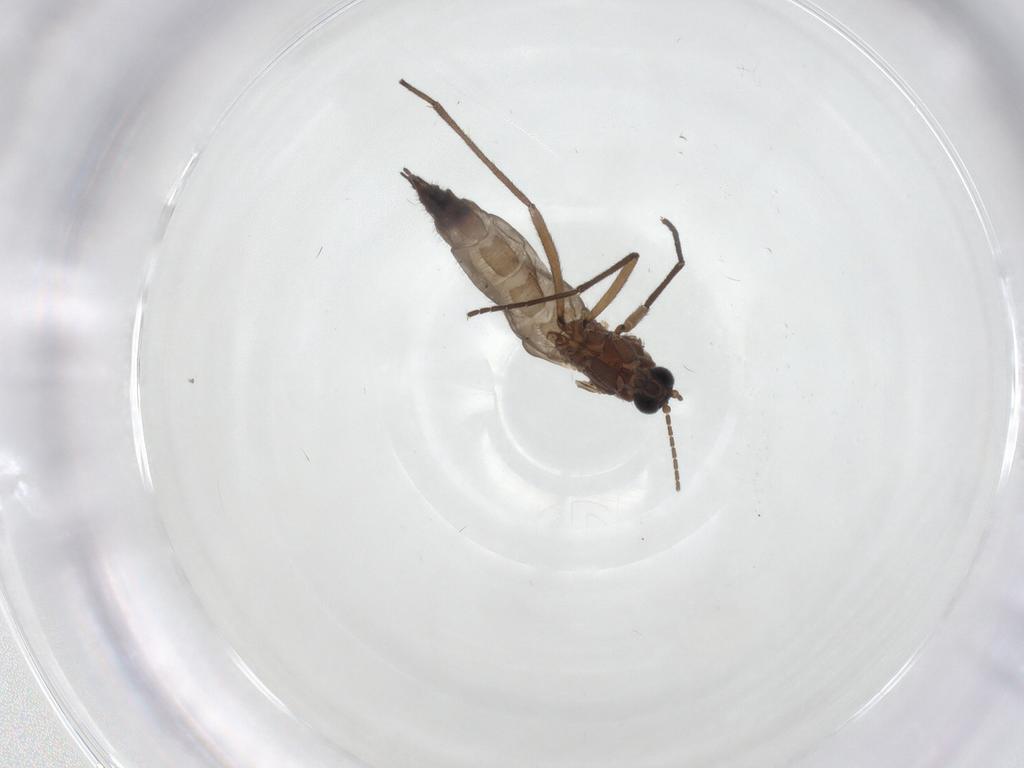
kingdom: Animalia
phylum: Arthropoda
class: Insecta
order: Diptera
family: Sciaridae
